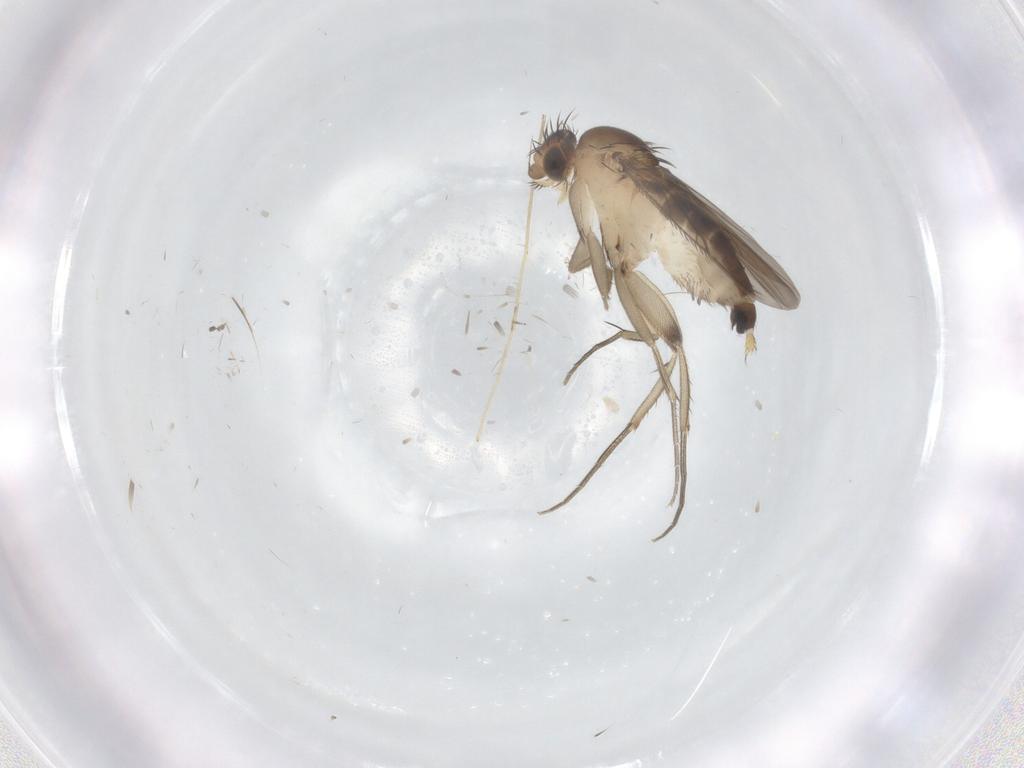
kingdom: Animalia
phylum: Arthropoda
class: Insecta
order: Diptera
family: Phoridae
